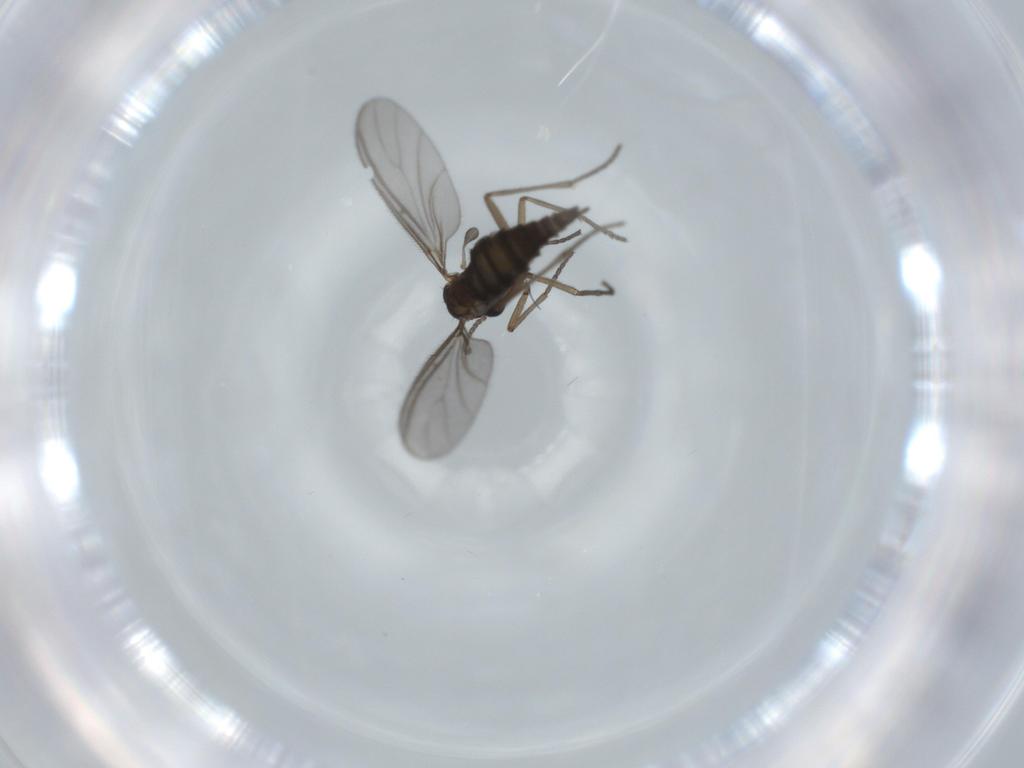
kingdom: Animalia
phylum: Arthropoda
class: Insecta
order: Diptera
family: Sciaridae
